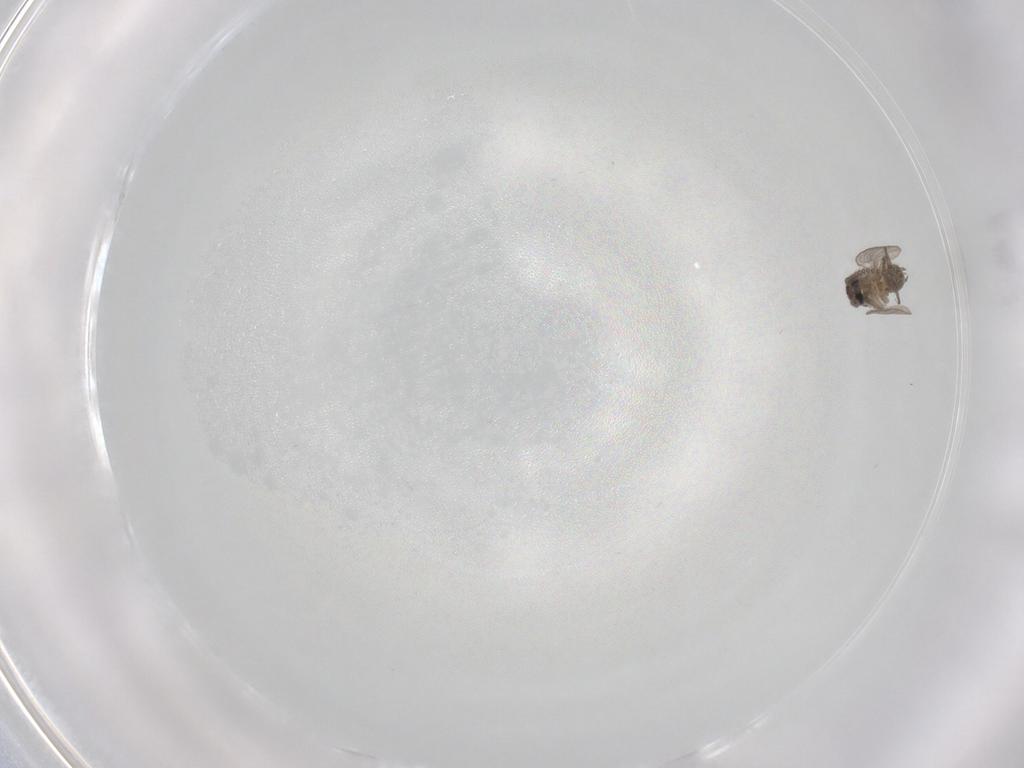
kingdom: Animalia
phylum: Arthropoda
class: Insecta
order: Diptera
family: Psychodidae
